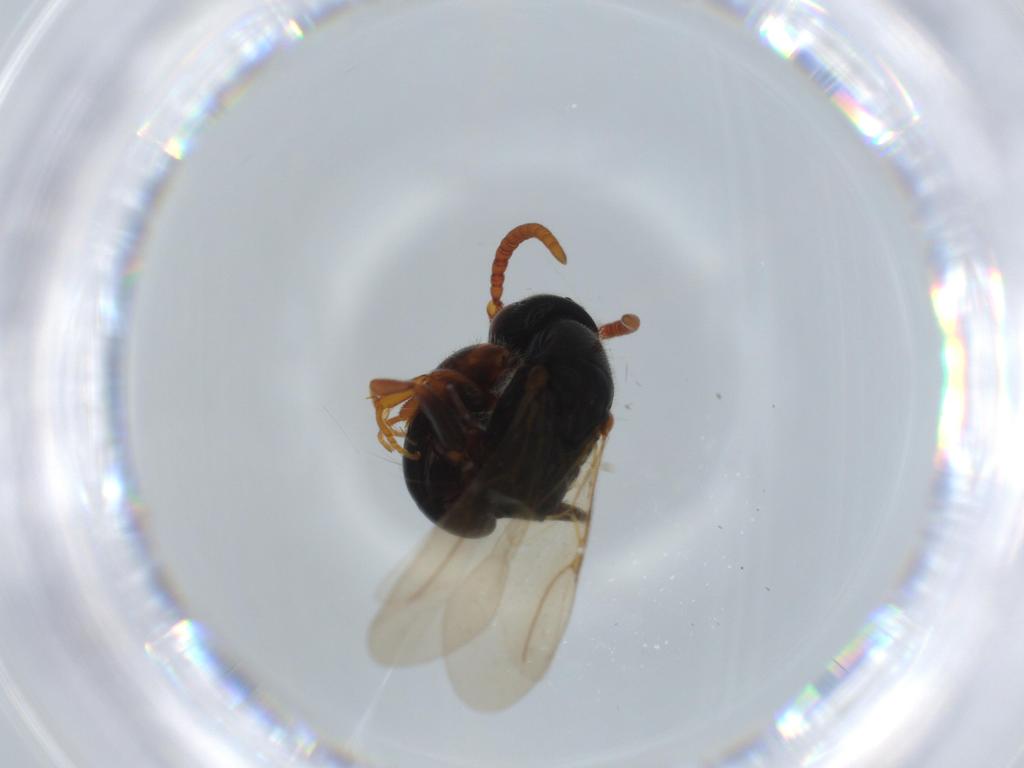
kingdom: Animalia
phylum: Arthropoda
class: Insecta
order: Hymenoptera
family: Bethylidae
